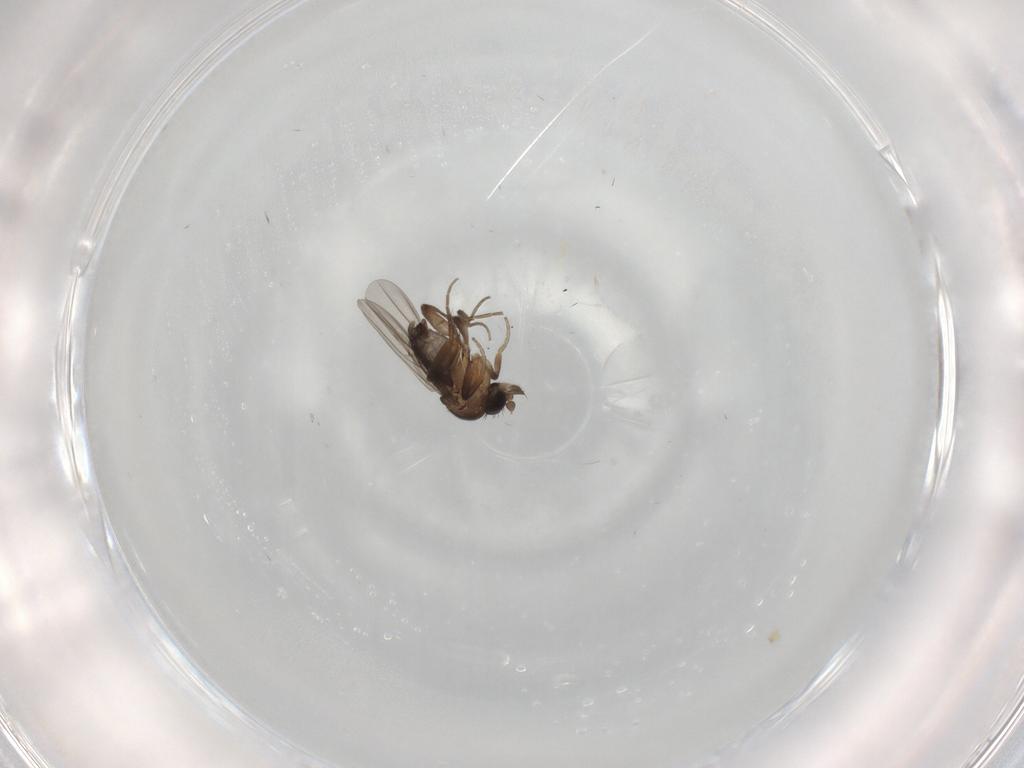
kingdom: Animalia
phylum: Arthropoda
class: Insecta
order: Diptera
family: Phoridae
